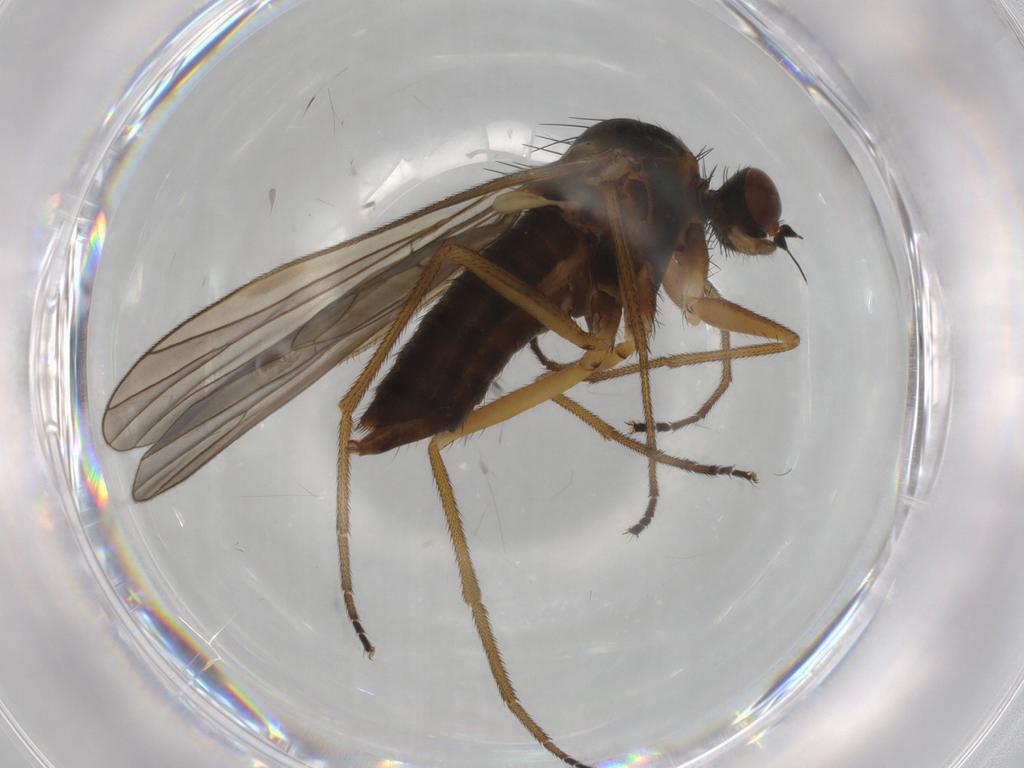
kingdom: Animalia
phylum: Arthropoda
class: Insecta
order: Diptera
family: Brachystomatidae
